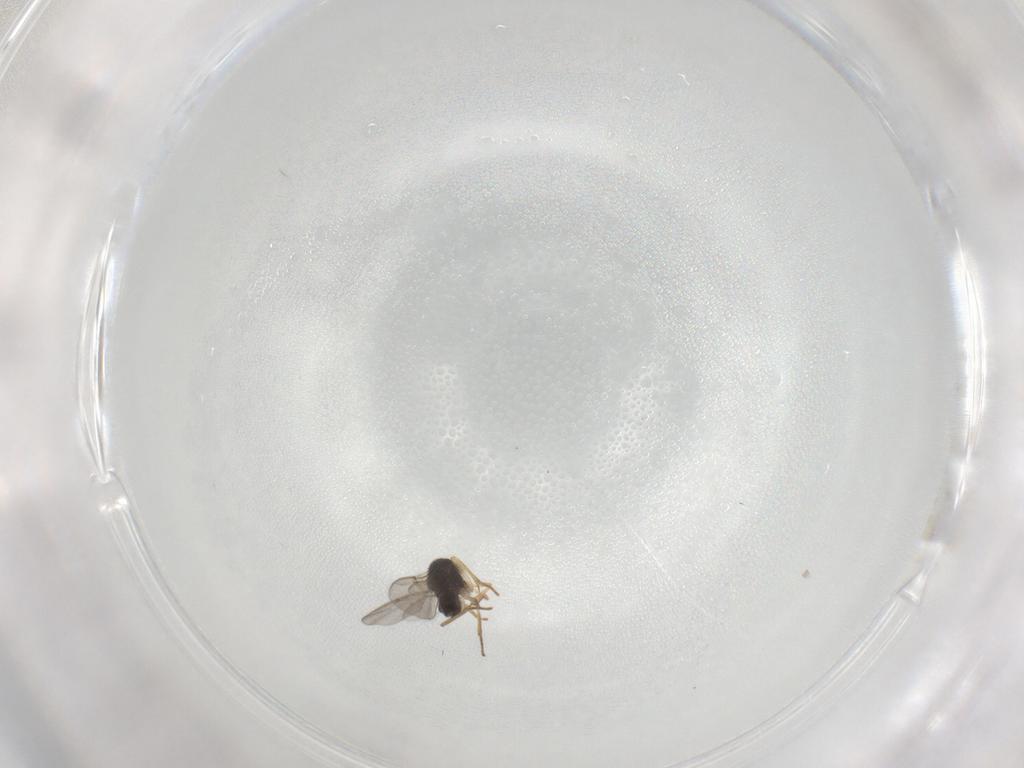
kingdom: Animalia
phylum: Arthropoda
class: Insecta
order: Hymenoptera
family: Encyrtidae
